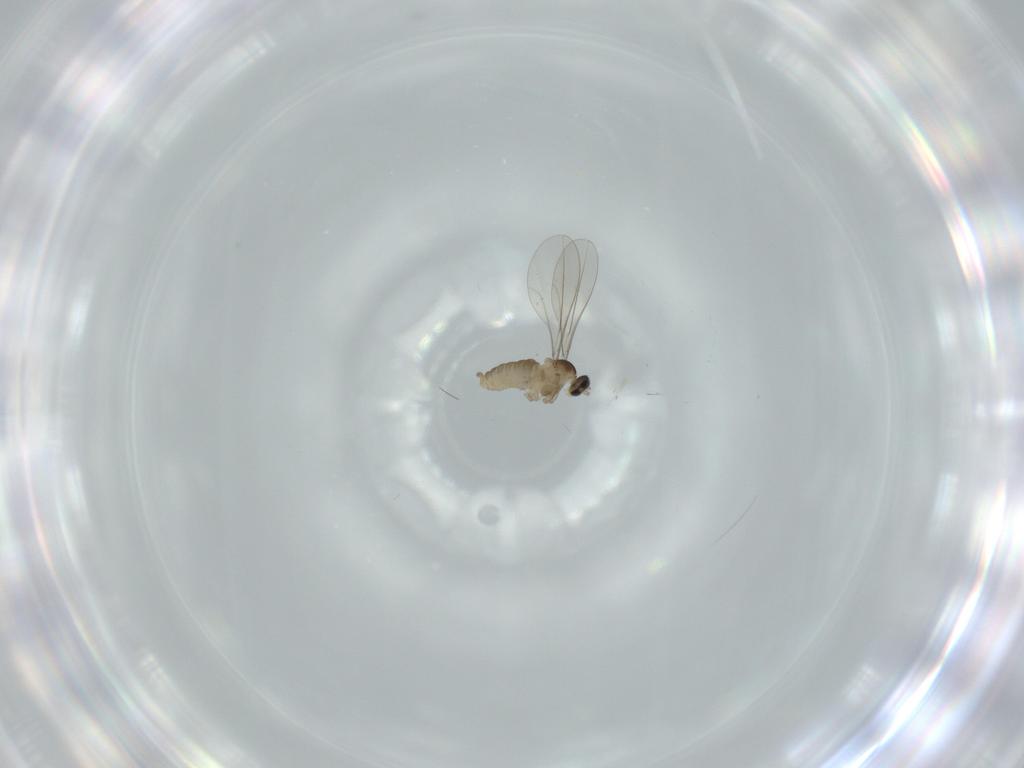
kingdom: Animalia
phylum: Arthropoda
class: Insecta
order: Diptera
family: Cecidomyiidae
